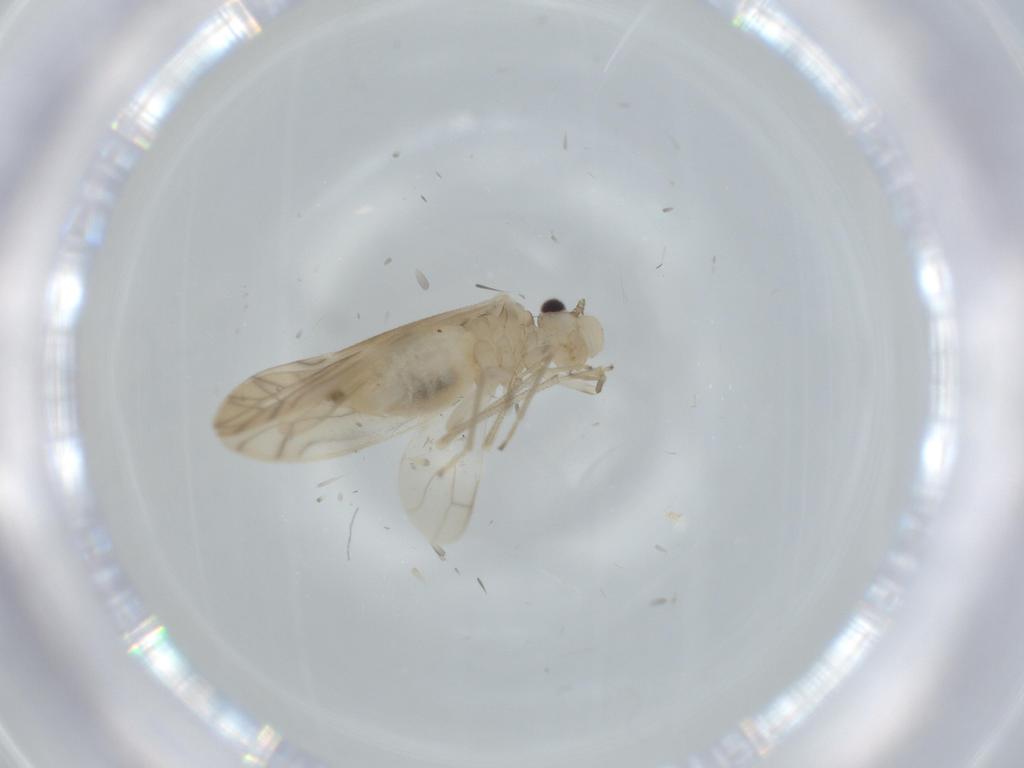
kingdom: Animalia
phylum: Arthropoda
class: Insecta
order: Psocodea
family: Liposcelididae
